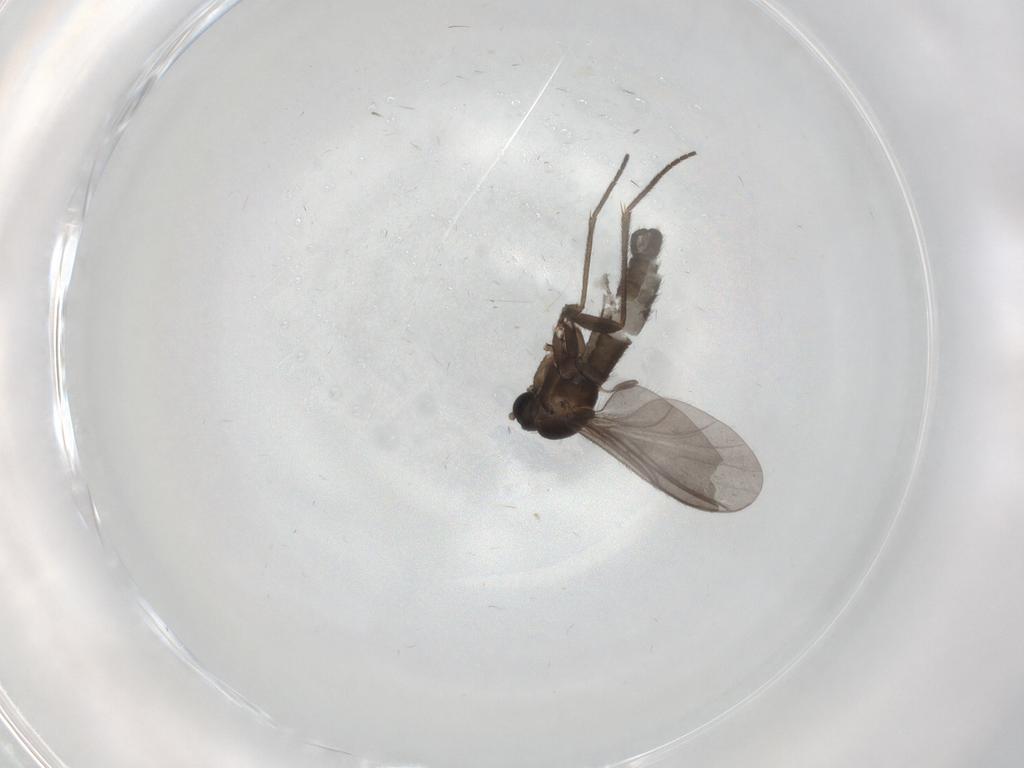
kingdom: Animalia
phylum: Arthropoda
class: Insecta
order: Diptera
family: Sciaridae
